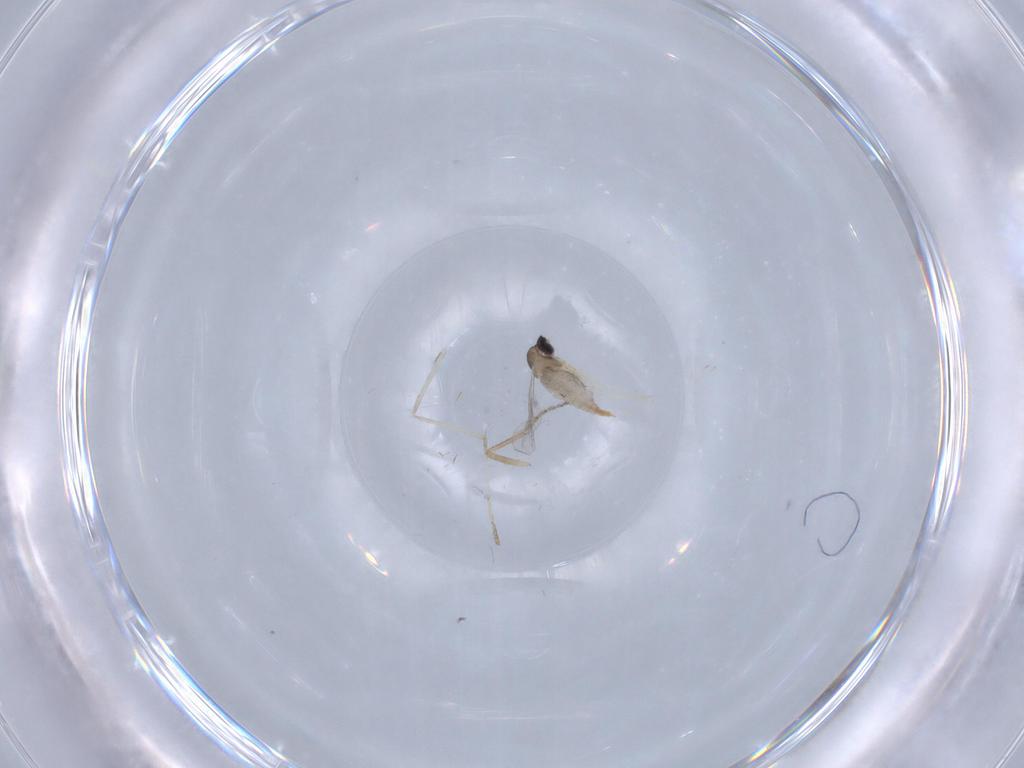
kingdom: Animalia
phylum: Arthropoda
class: Insecta
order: Diptera
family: Cecidomyiidae
